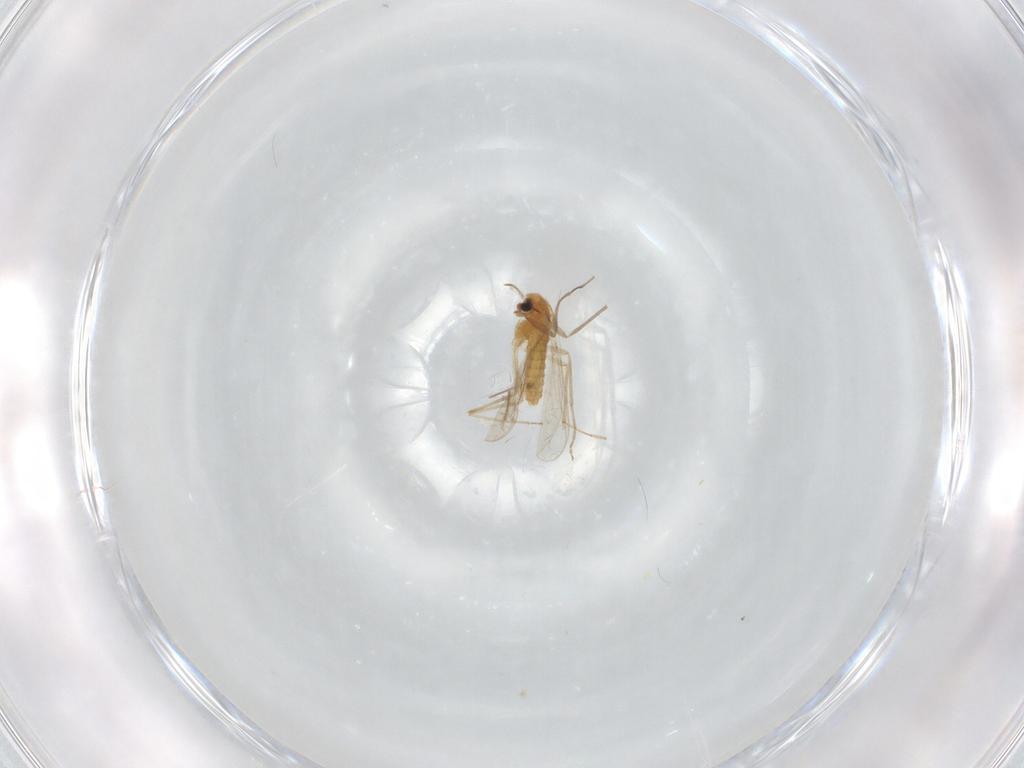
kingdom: Animalia
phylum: Arthropoda
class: Insecta
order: Diptera
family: Chironomidae
